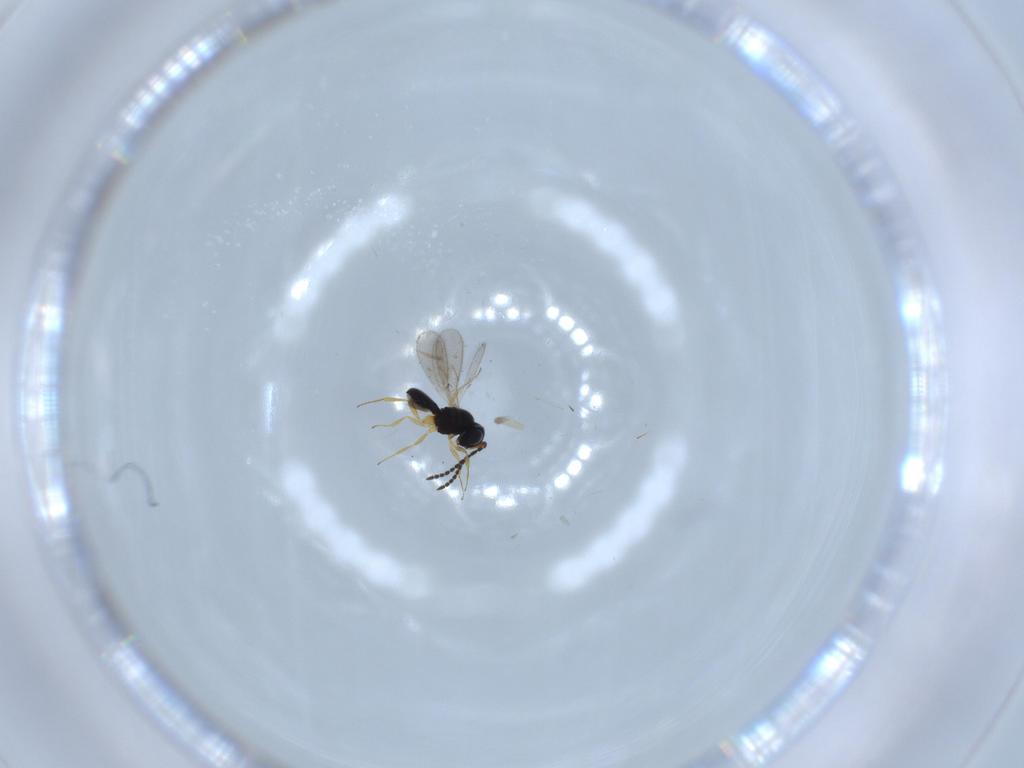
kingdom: Animalia
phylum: Arthropoda
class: Insecta
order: Hymenoptera
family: Scelionidae
